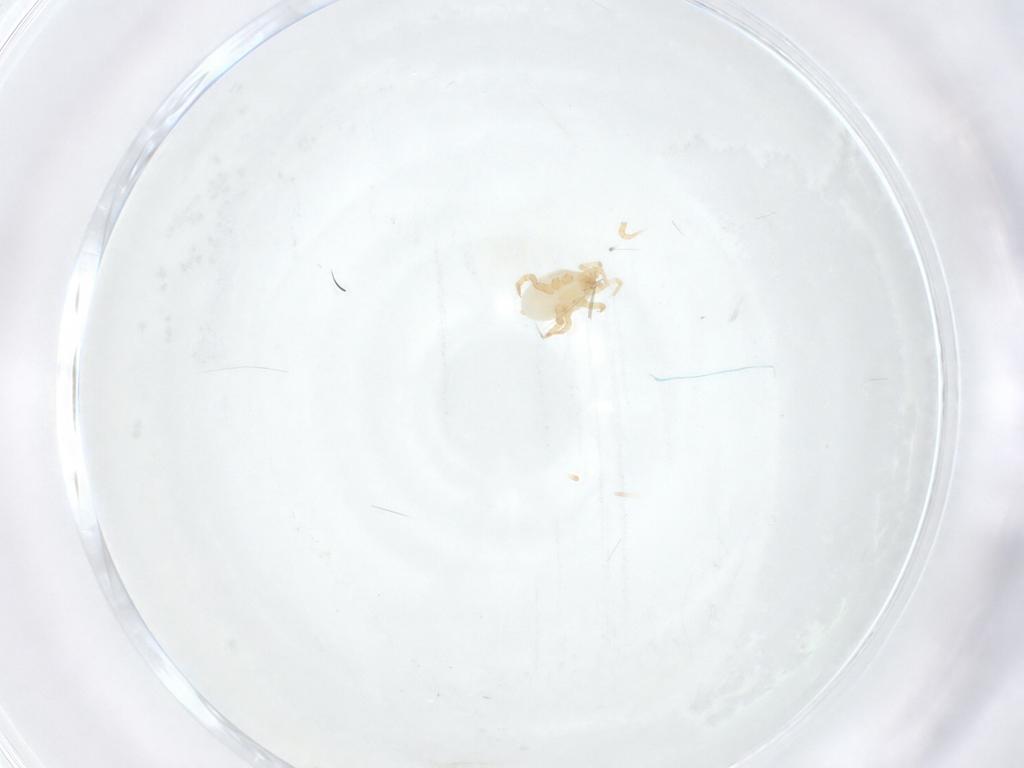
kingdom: Animalia
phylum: Arthropoda
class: Arachnida
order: Mesostigmata
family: Parasitidae
